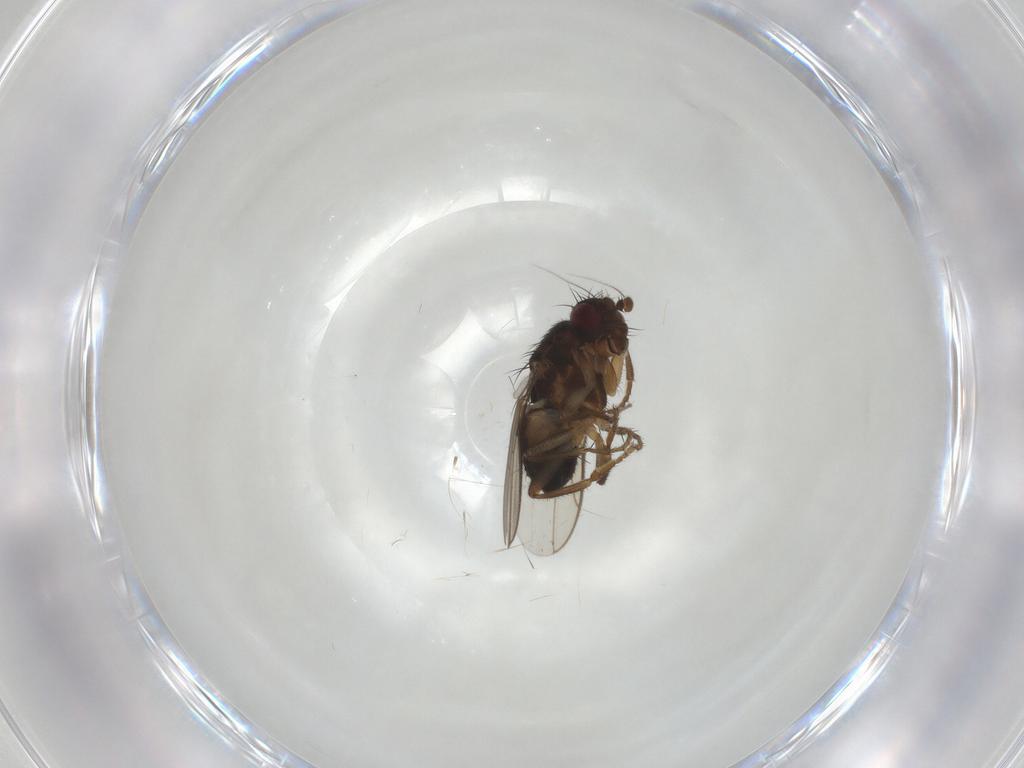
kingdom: Animalia
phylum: Arthropoda
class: Insecta
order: Diptera
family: Sphaeroceridae
